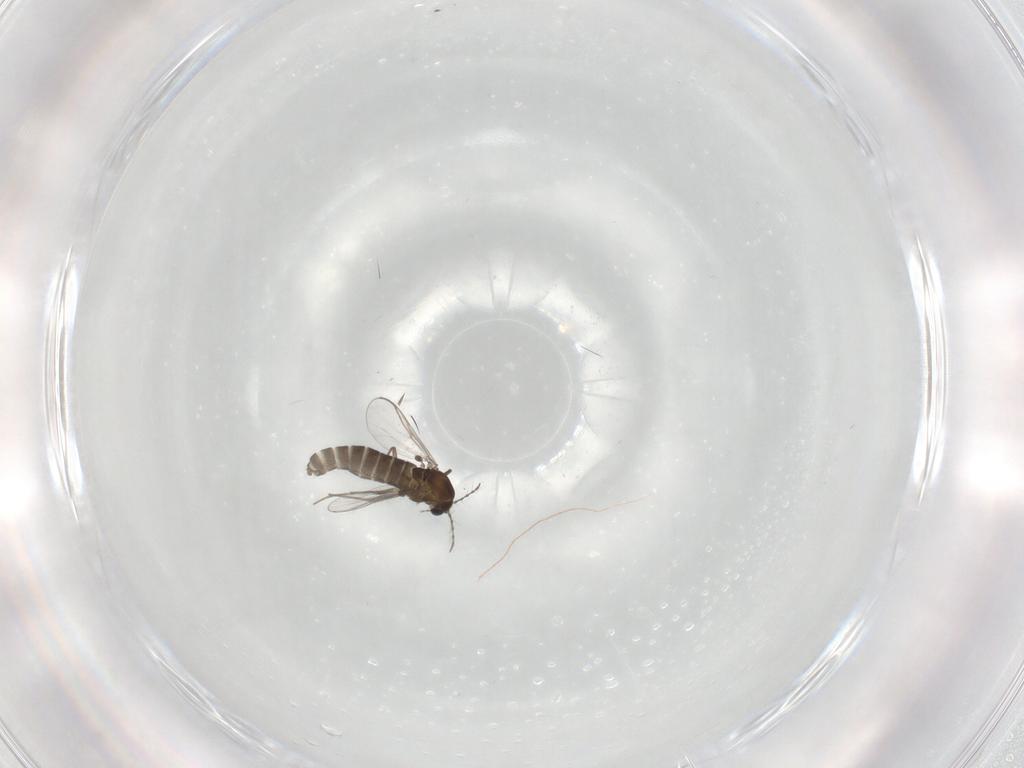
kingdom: Animalia
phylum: Arthropoda
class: Insecta
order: Diptera
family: Chironomidae
